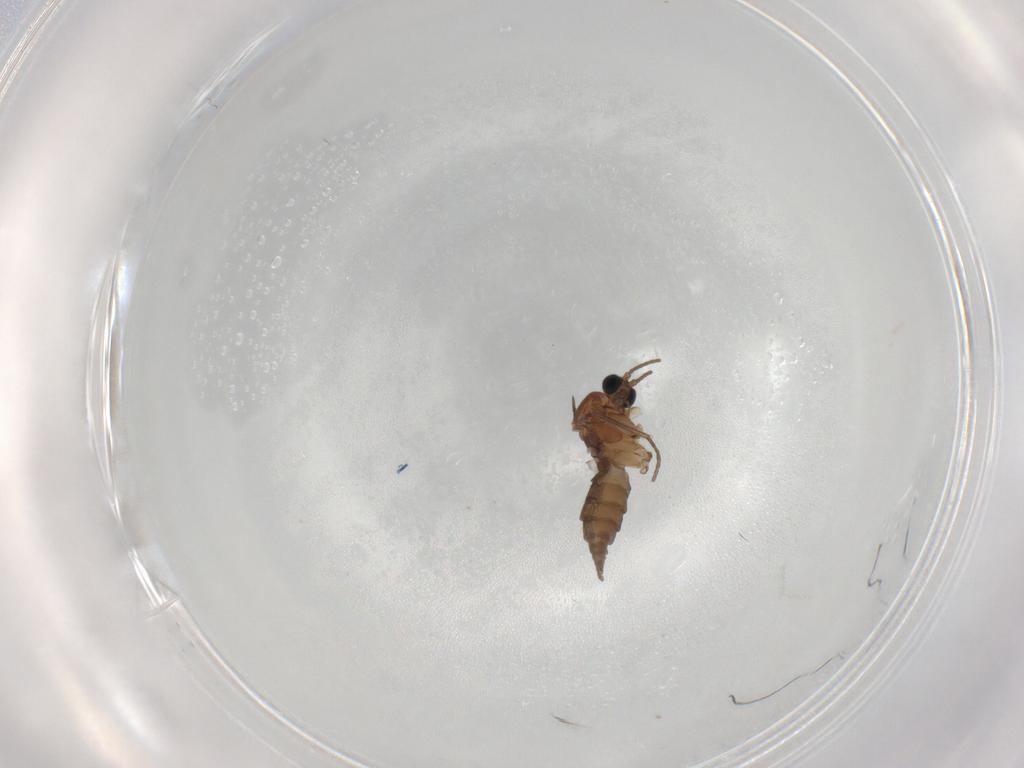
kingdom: Animalia
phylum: Arthropoda
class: Insecta
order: Diptera
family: Sciaridae
